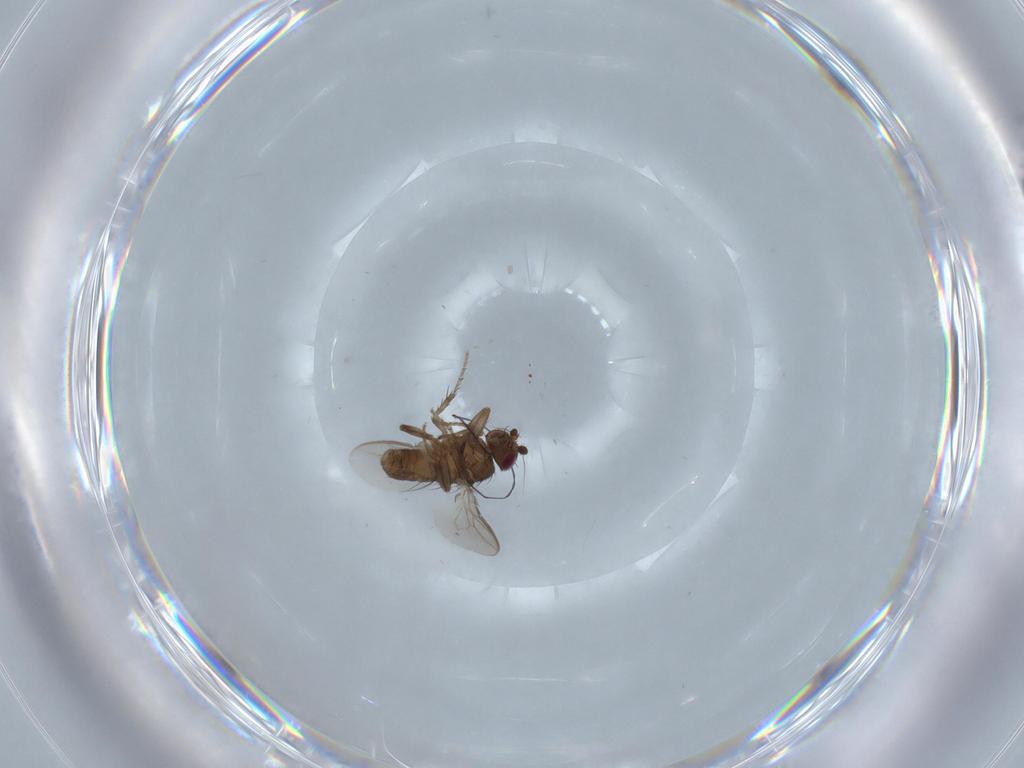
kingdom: Animalia
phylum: Arthropoda
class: Insecta
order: Diptera
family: Sphaeroceridae
